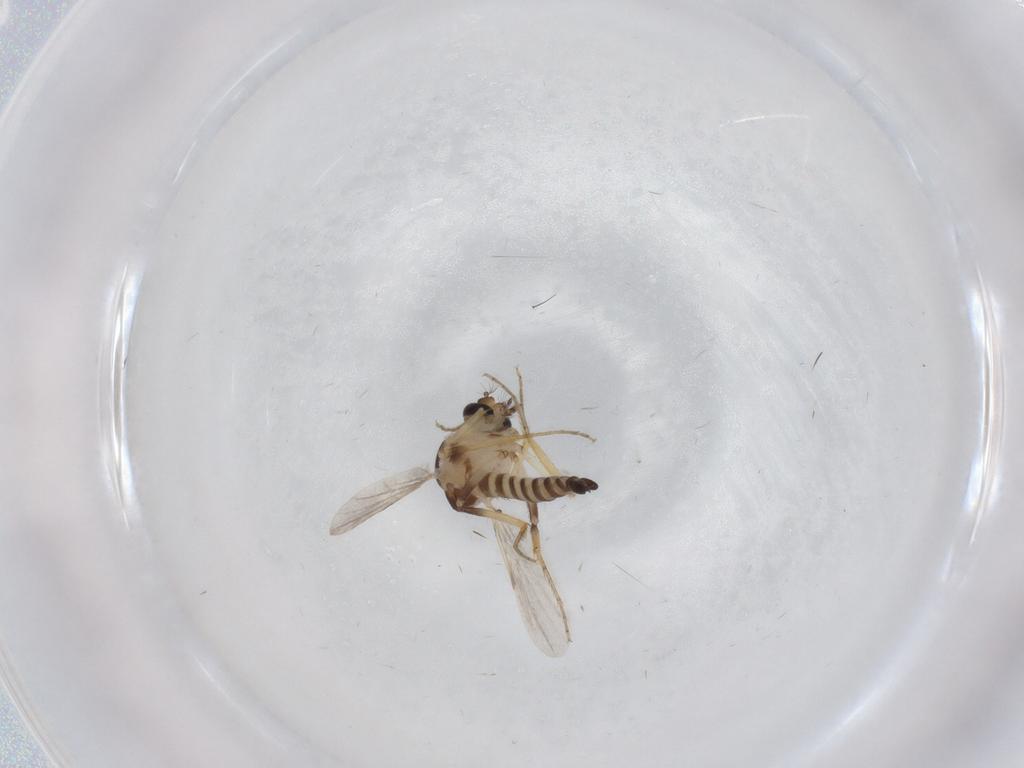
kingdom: Animalia
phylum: Arthropoda
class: Insecta
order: Diptera
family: Ceratopogonidae
